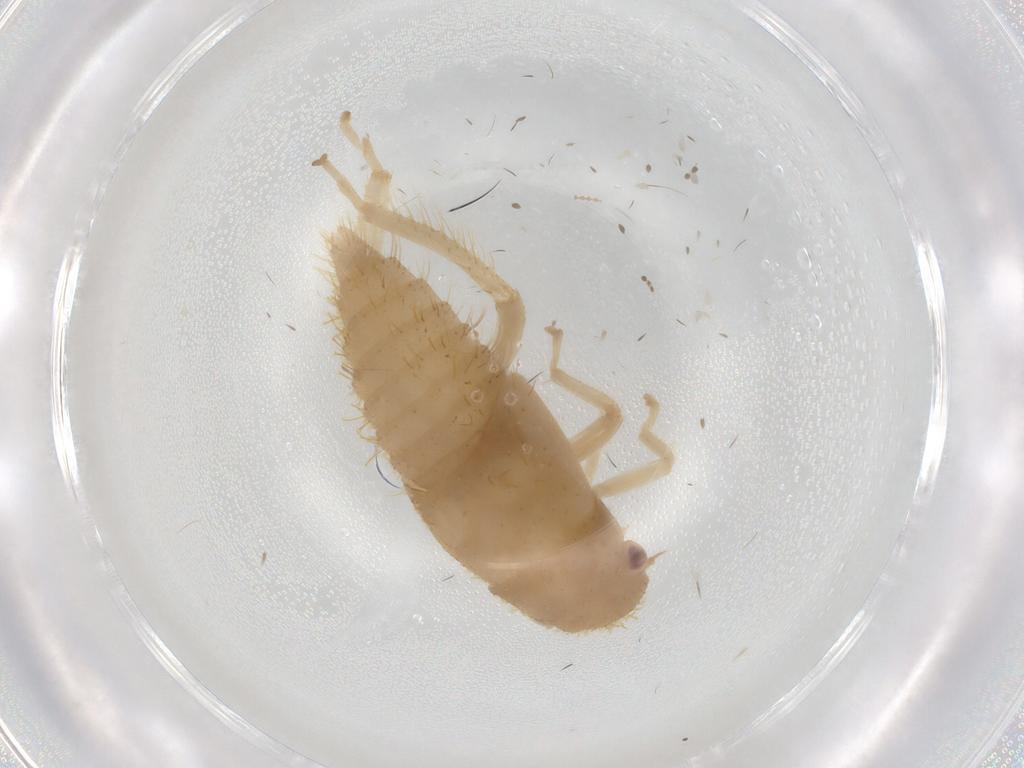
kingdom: Animalia
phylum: Arthropoda
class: Insecta
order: Hemiptera
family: Cicadellidae
